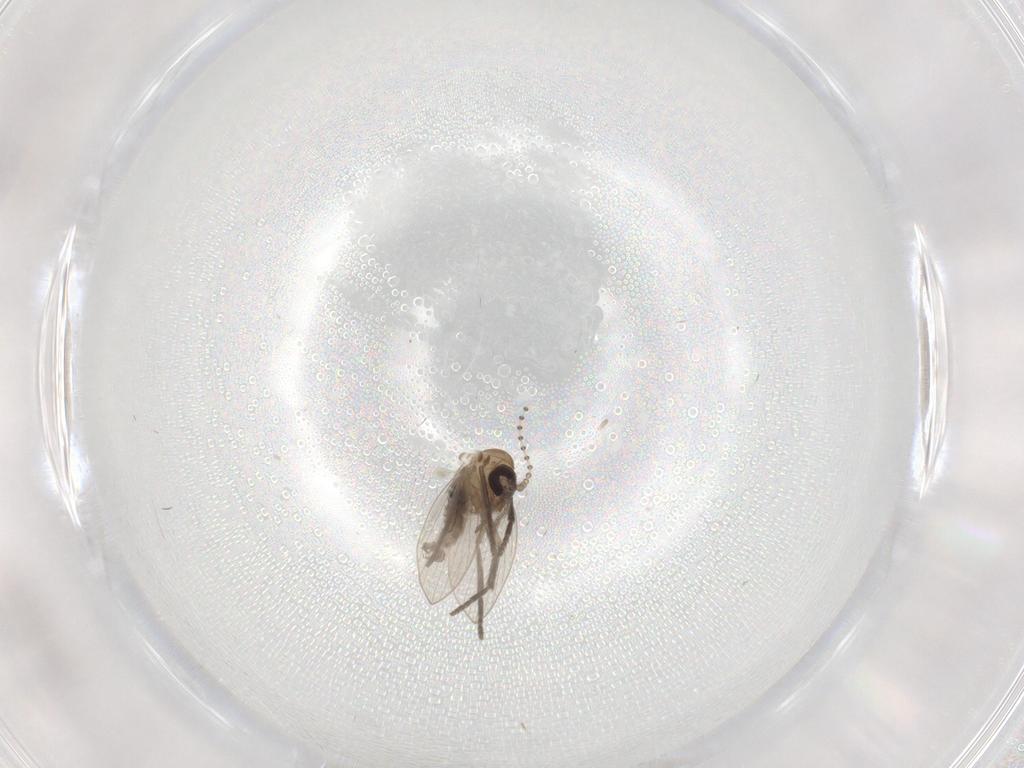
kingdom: Animalia
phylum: Arthropoda
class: Insecta
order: Diptera
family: Psychodidae
